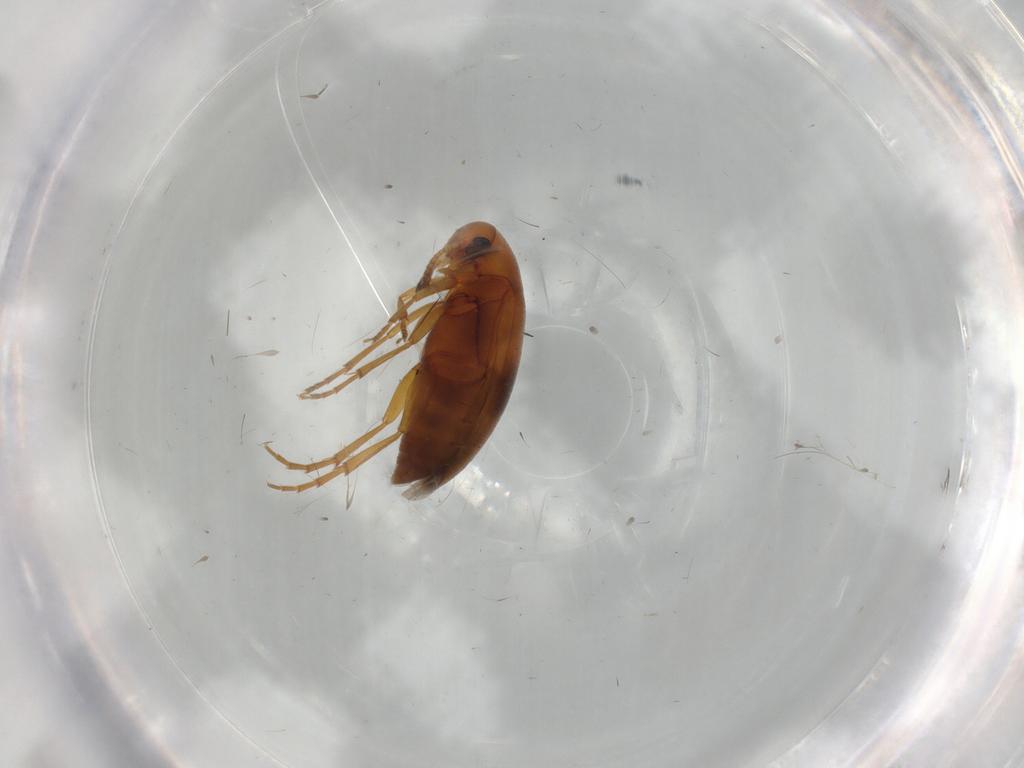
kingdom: Animalia
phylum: Arthropoda
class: Insecta
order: Coleoptera
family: Scraptiidae
